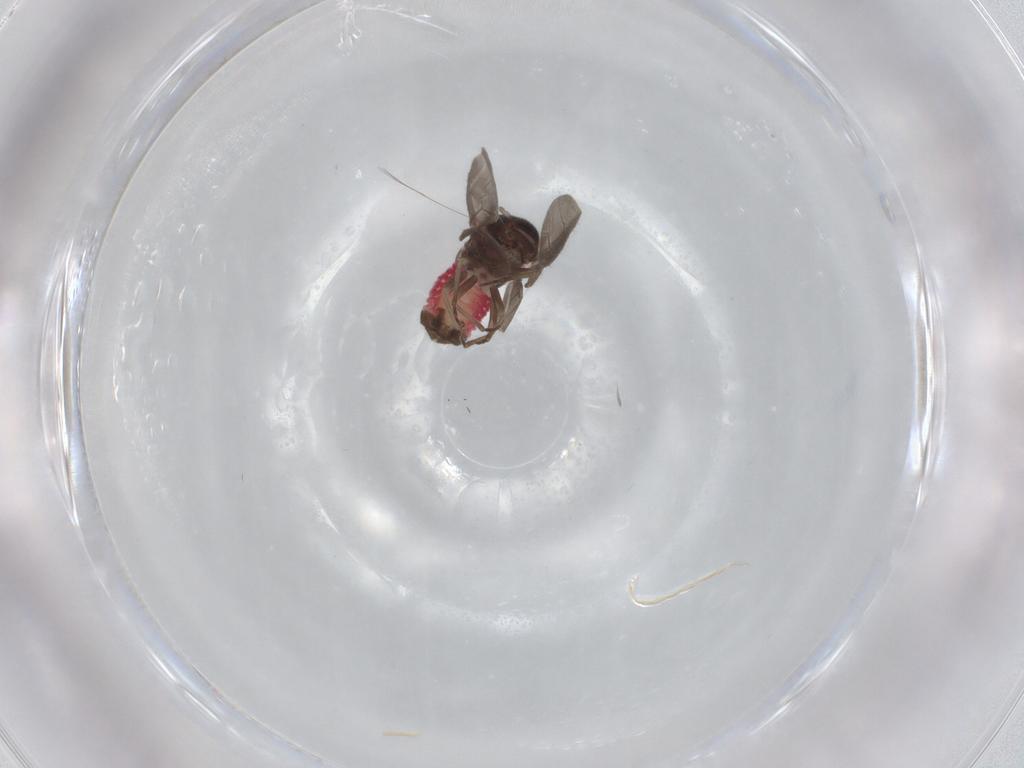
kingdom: Animalia
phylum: Arthropoda
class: Insecta
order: Psocodea
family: Archipsocidae
